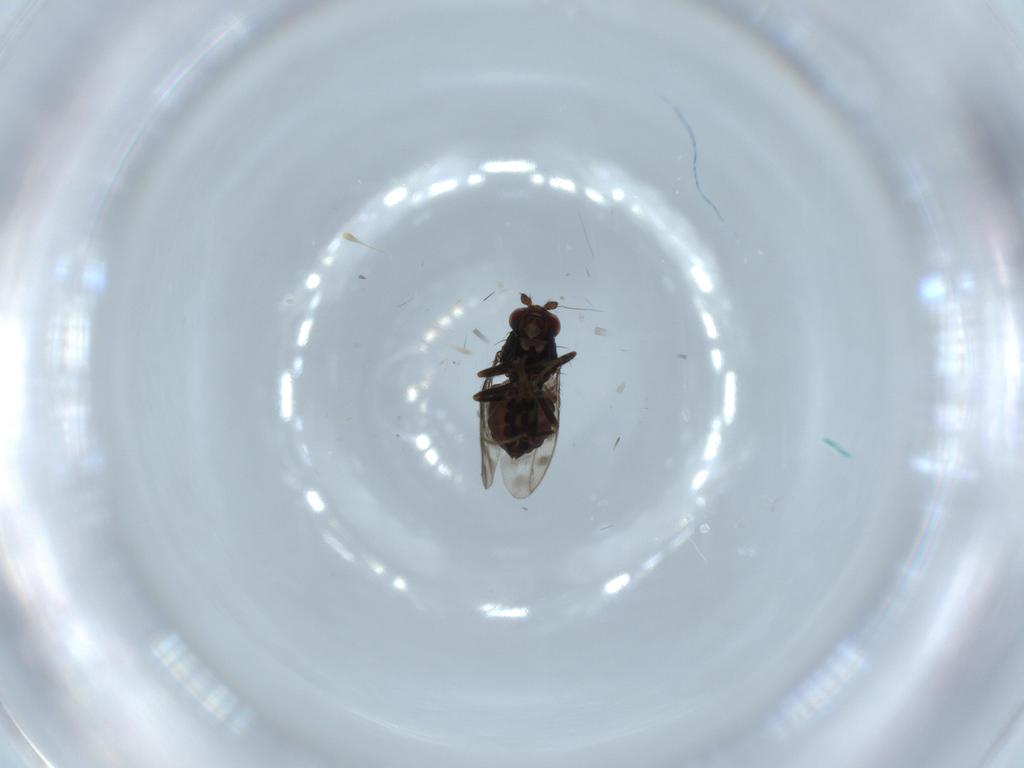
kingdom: Animalia
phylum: Arthropoda
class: Insecta
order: Diptera
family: Sphaeroceridae
